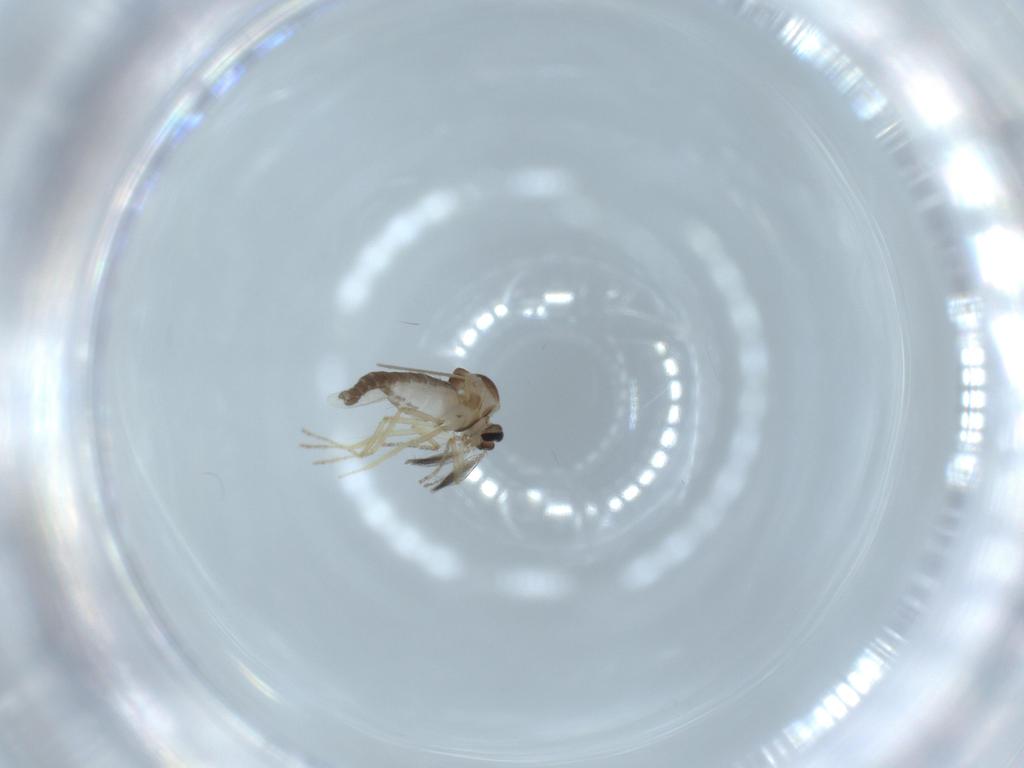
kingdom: Animalia
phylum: Arthropoda
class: Insecta
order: Diptera
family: Ceratopogonidae
